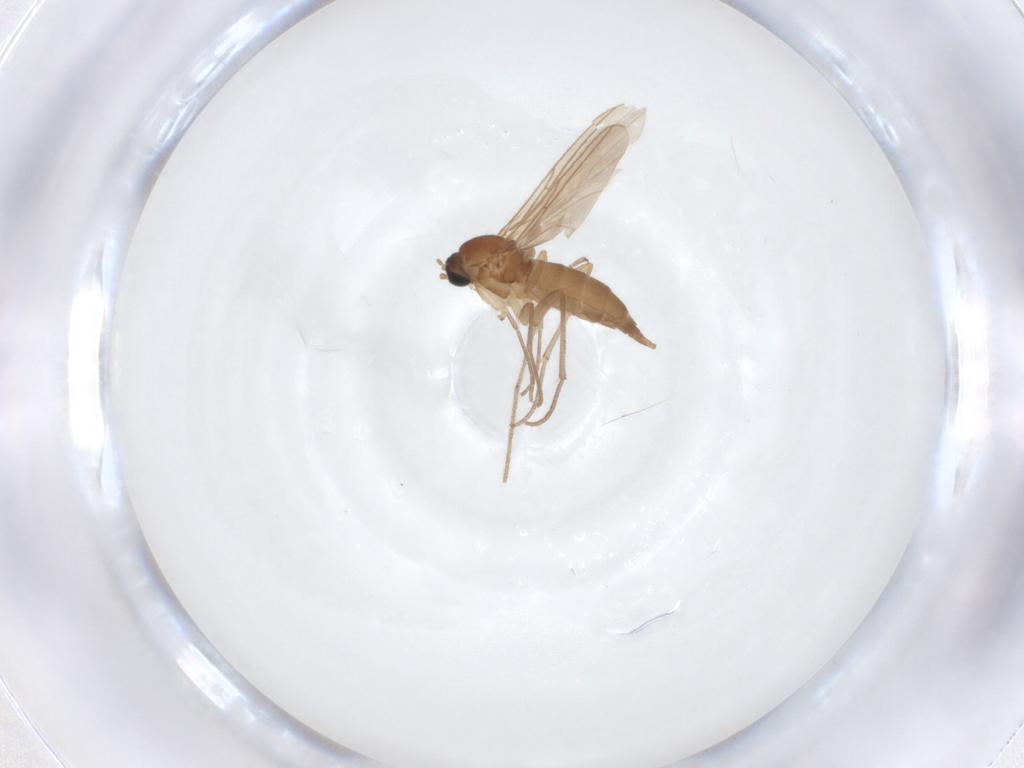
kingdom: Animalia
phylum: Arthropoda
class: Insecta
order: Diptera
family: Sciaridae
